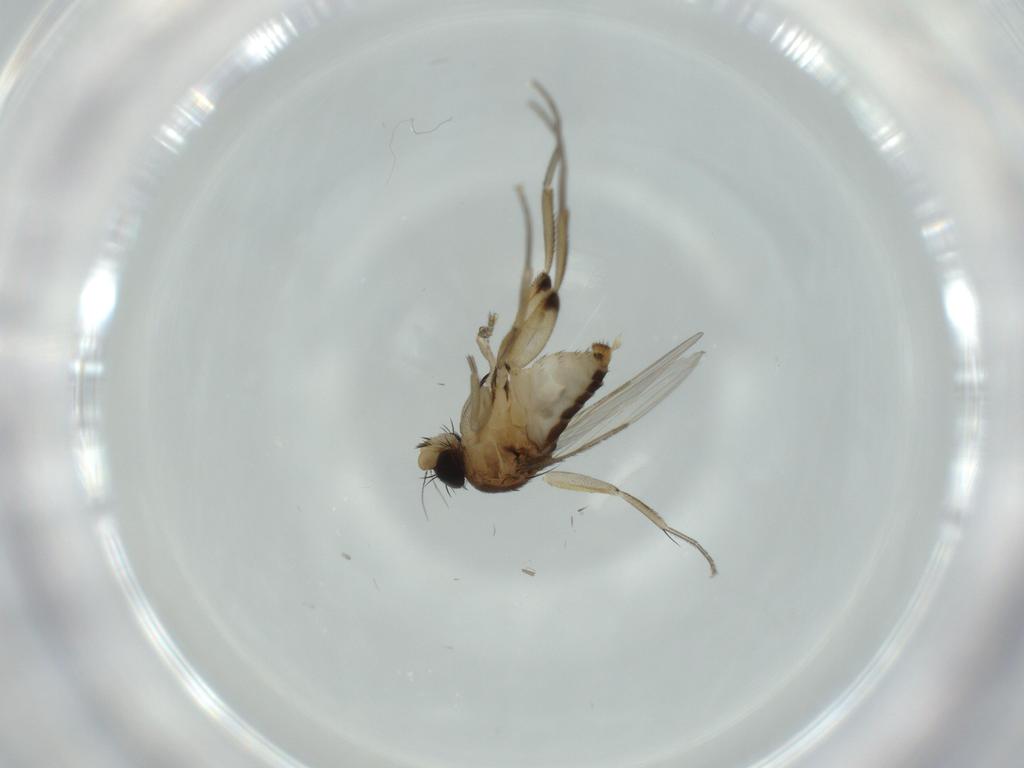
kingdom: Animalia
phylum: Arthropoda
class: Insecta
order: Diptera
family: Phoridae
